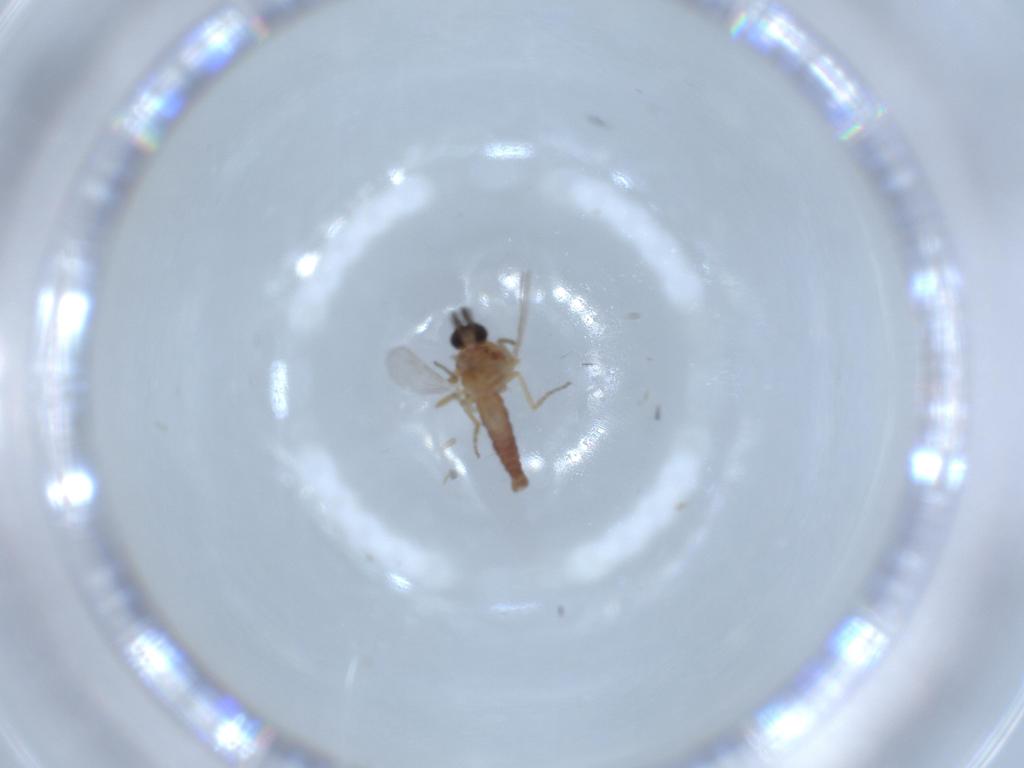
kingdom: Animalia
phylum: Arthropoda
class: Insecta
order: Diptera
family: Ceratopogonidae
